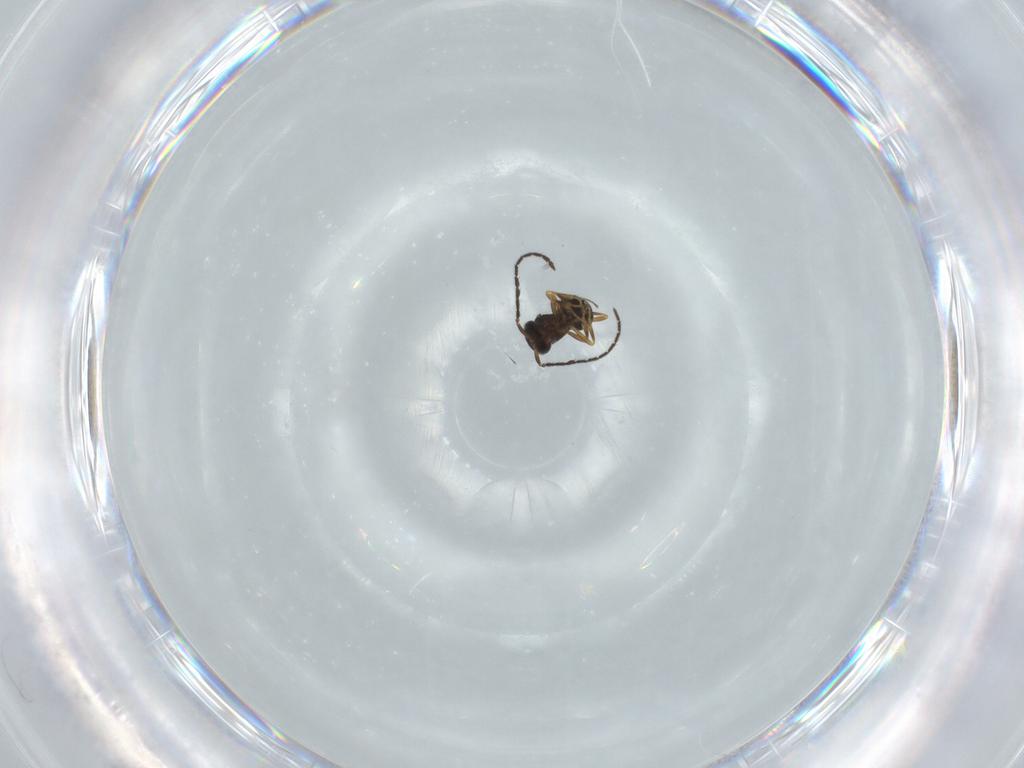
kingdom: Animalia
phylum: Arthropoda
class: Insecta
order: Hymenoptera
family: Scelionidae
